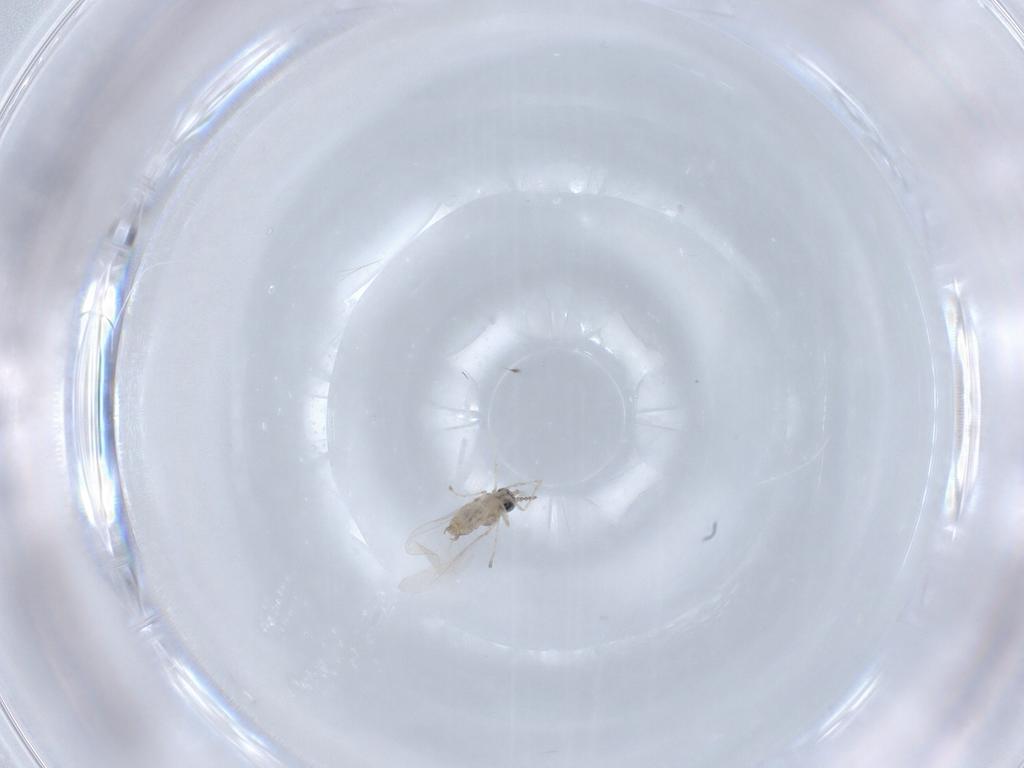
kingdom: Animalia
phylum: Arthropoda
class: Insecta
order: Diptera
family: Cecidomyiidae
